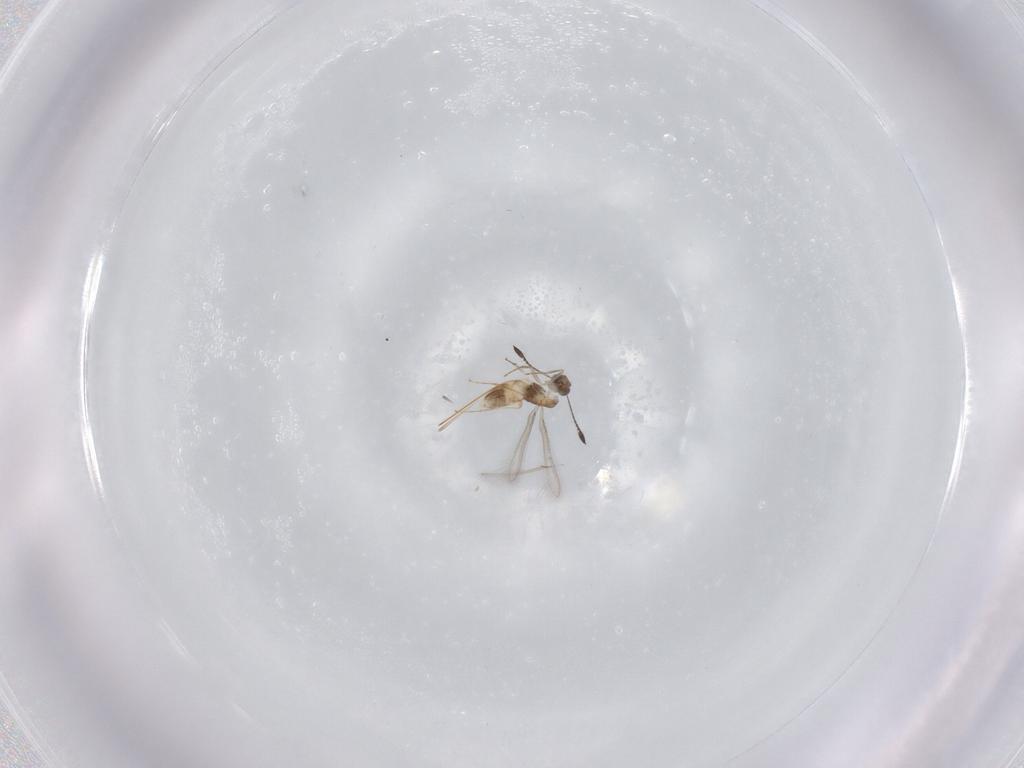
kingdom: Animalia
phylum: Arthropoda
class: Insecta
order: Hymenoptera
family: Mymaridae
